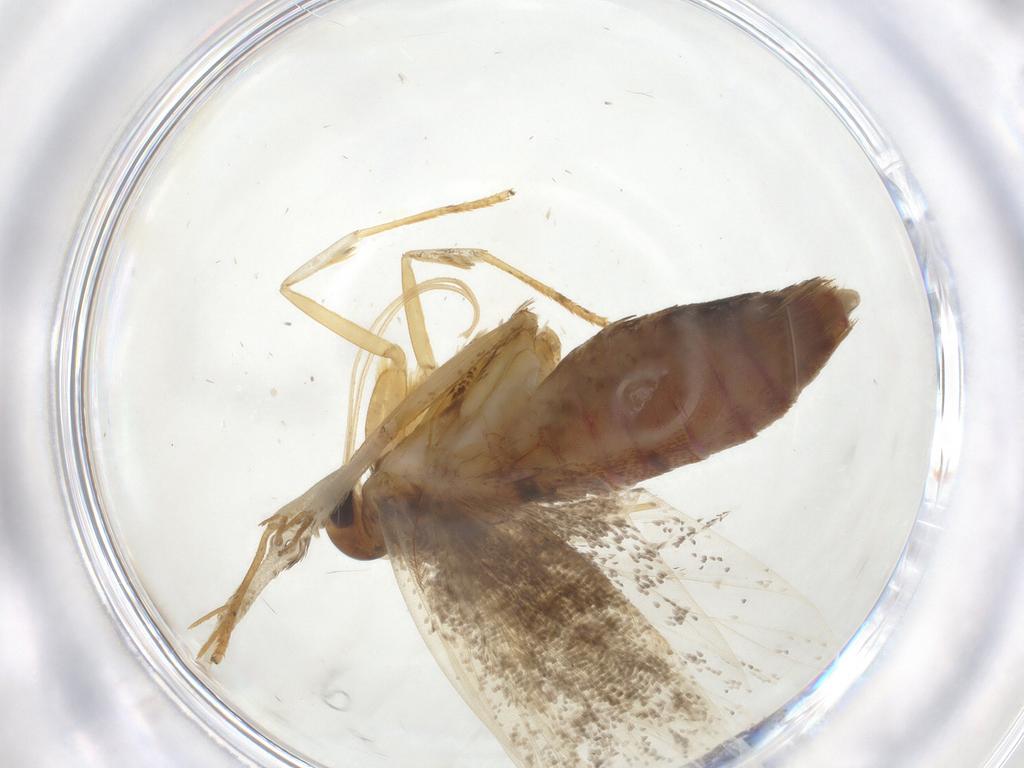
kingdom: Animalia
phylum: Arthropoda
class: Insecta
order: Lepidoptera
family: Lecithoceridae
